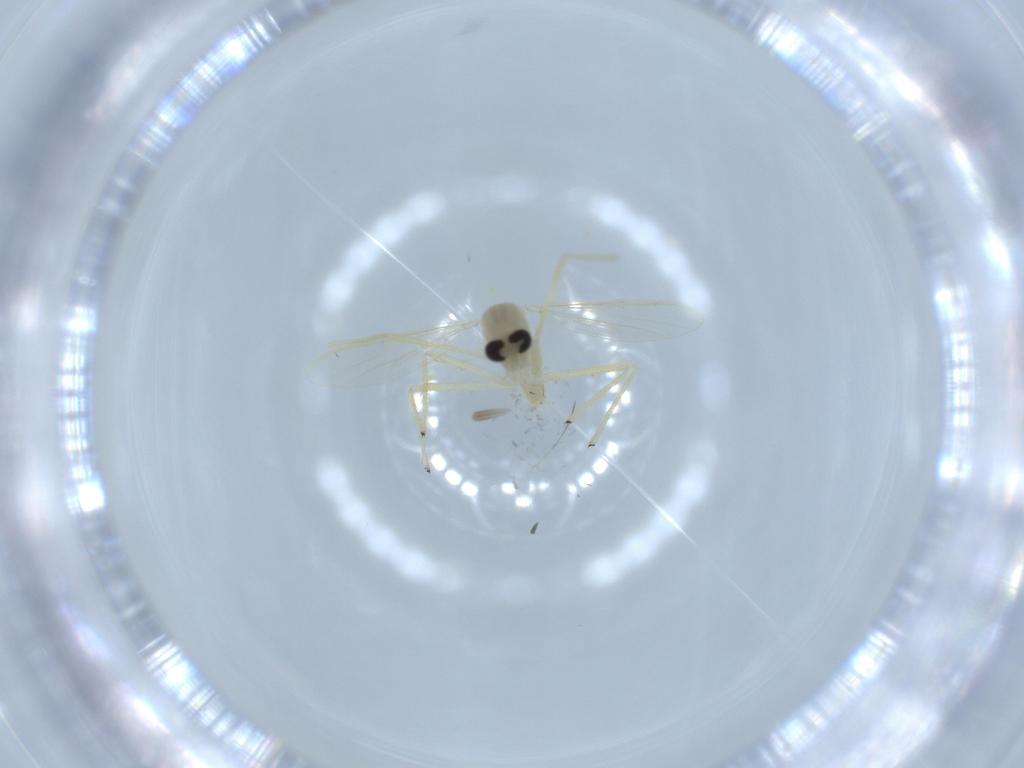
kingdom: Animalia
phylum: Arthropoda
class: Insecta
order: Diptera
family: Chironomidae
